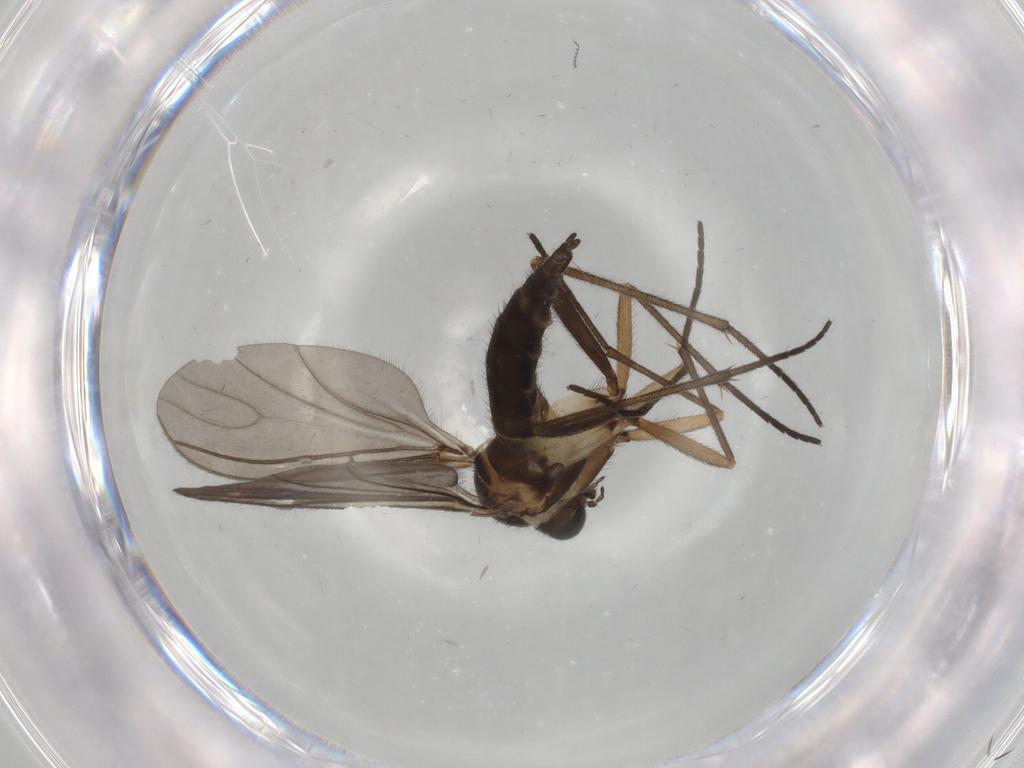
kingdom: Animalia
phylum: Arthropoda
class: Insecta
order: Diptera
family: Sciaridae
